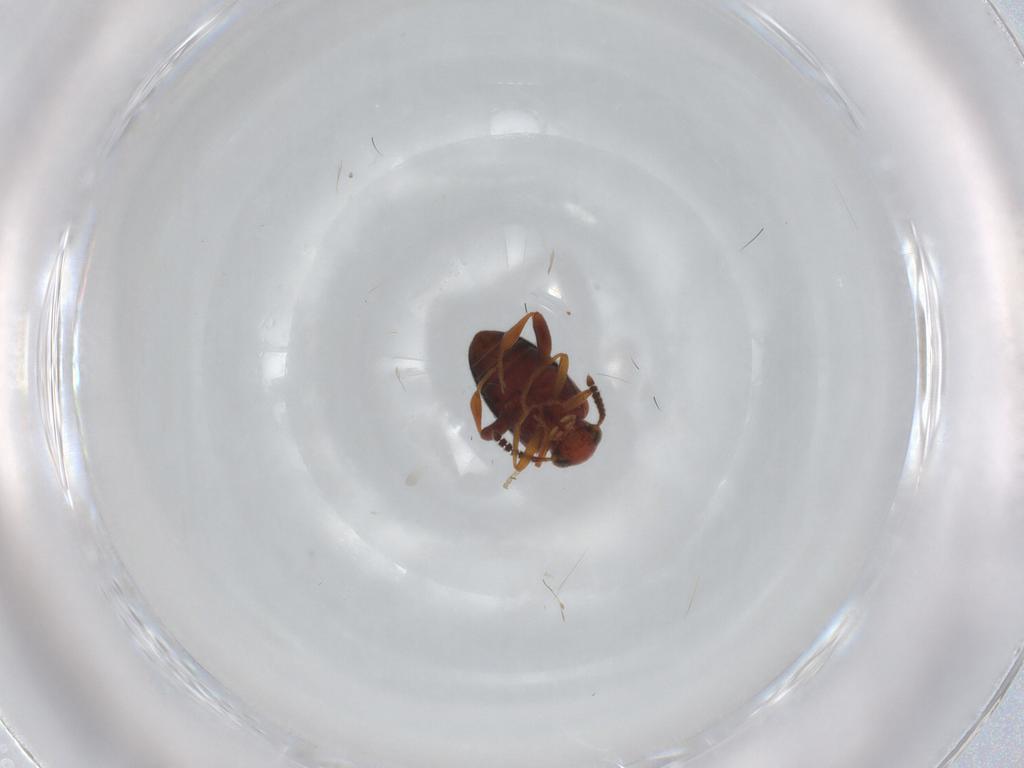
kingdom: Animalia
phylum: Arthropoda
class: Insecta
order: Coleoptera
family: Aderidae
